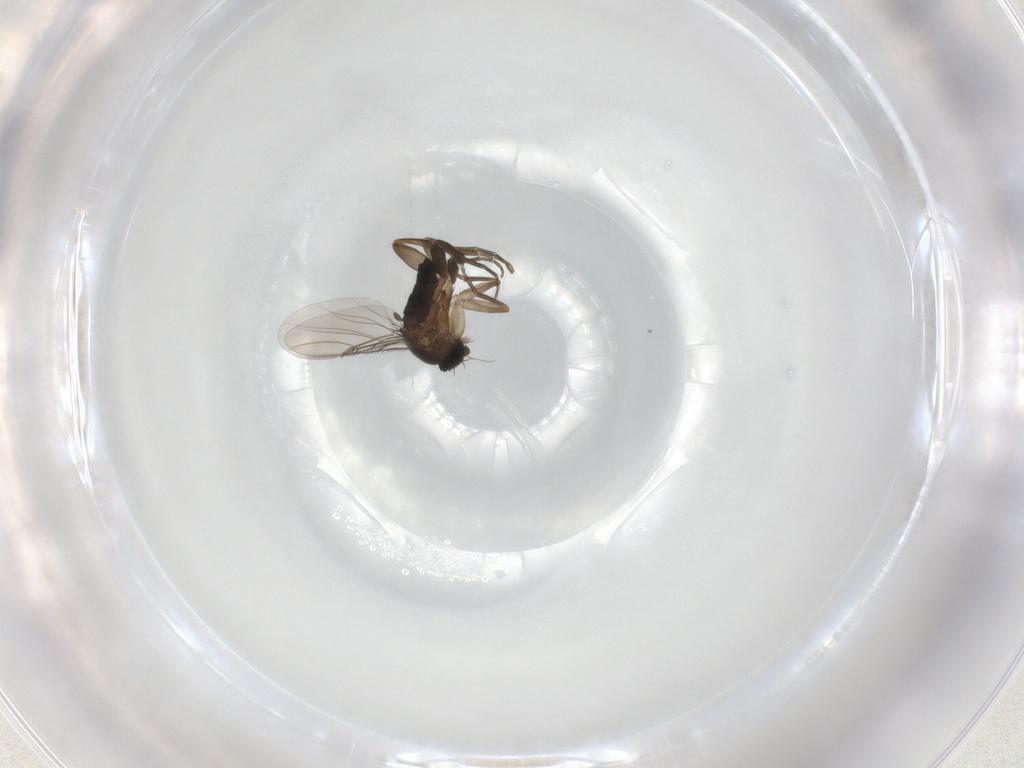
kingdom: Animalia
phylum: Arthropoda
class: Insecta
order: Diptera
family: Phoridae
